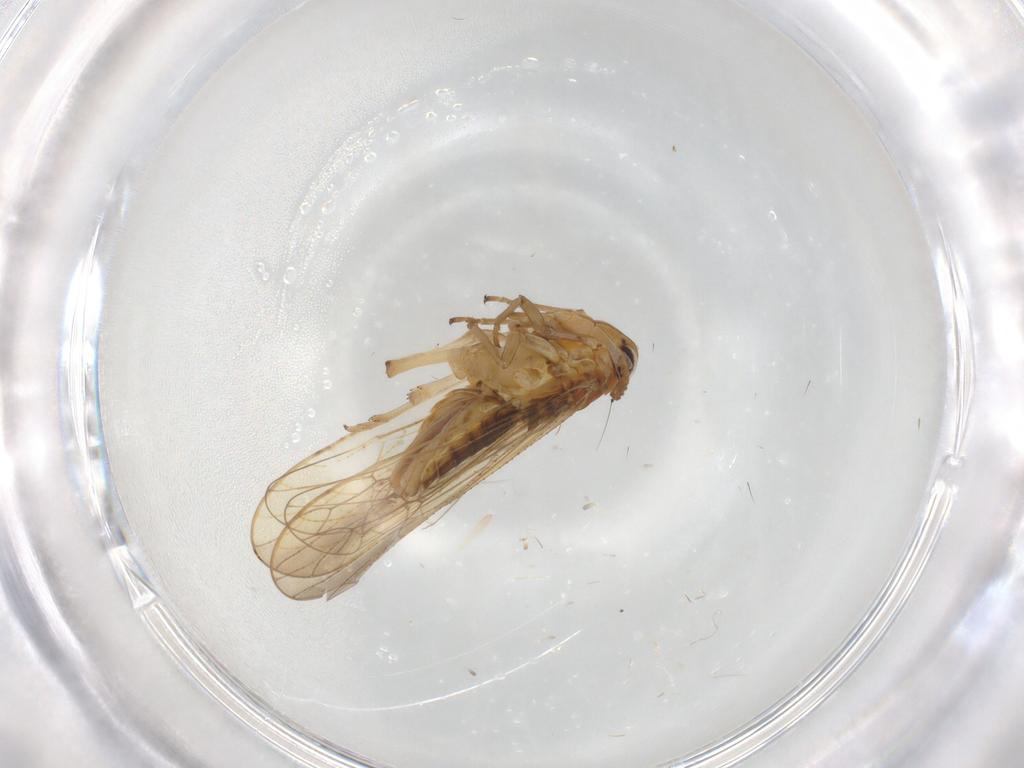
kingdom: Animalia
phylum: Arthropoda
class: Insecta
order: Hemiptera
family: Delphacidae
